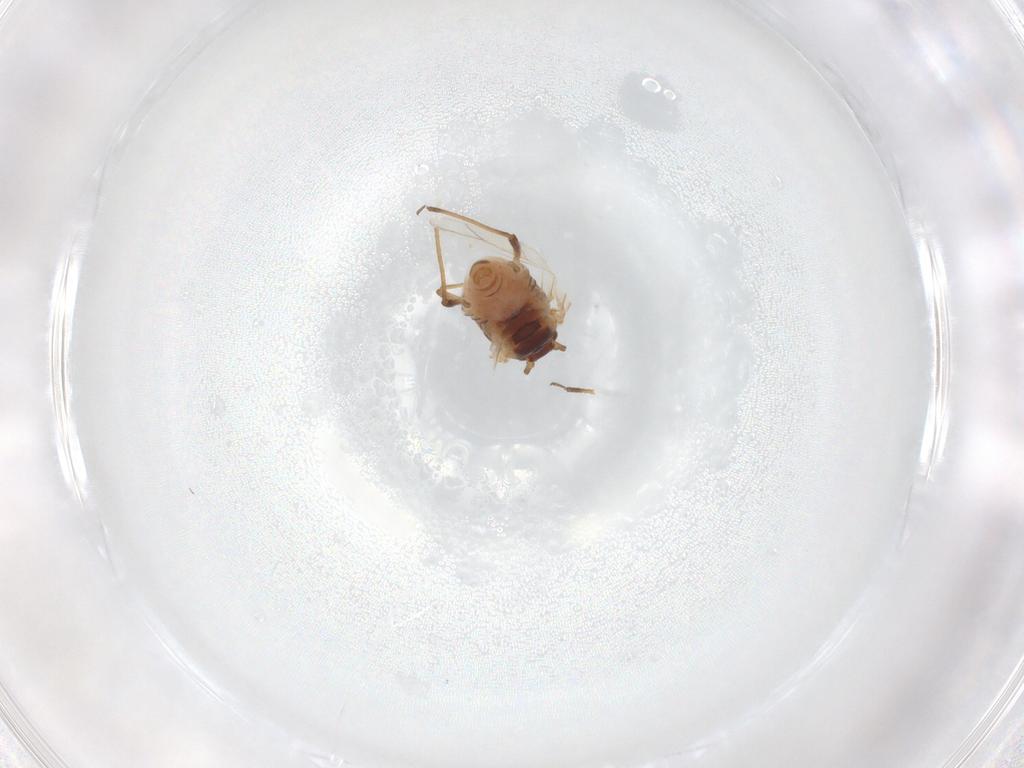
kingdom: Animalia
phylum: Arthropoda
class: Insecta
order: Hemiptera
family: Aphididae
